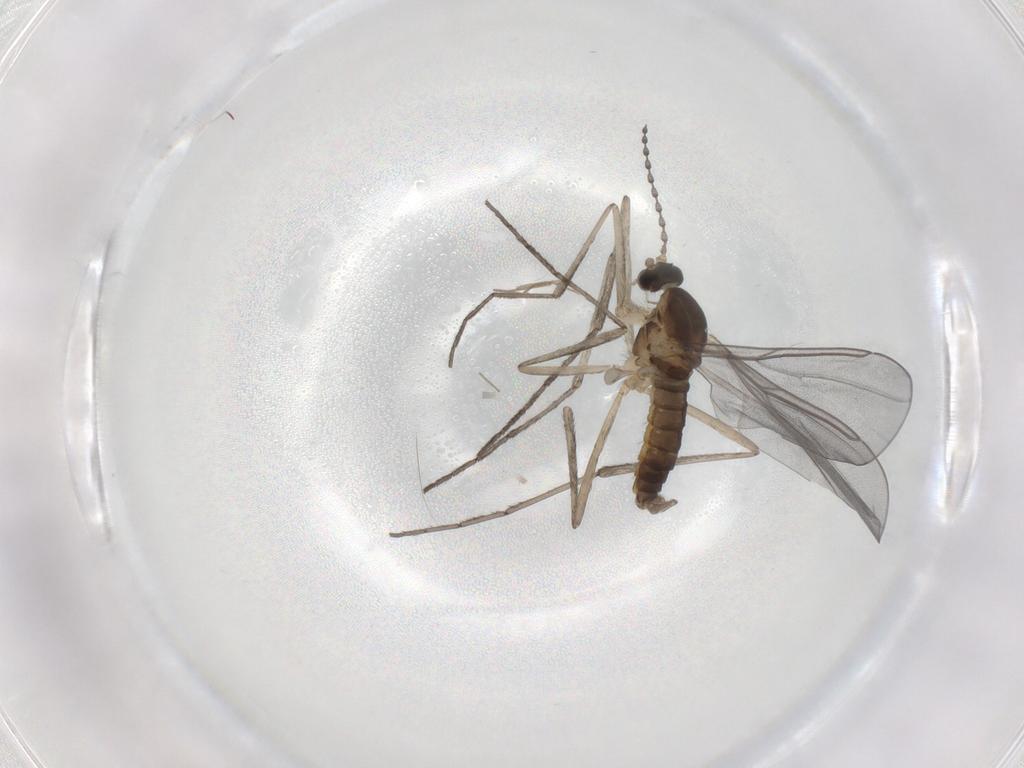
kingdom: Animalia
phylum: Arthropoda
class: Insecta
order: Diptera
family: Cecidomyiidae
